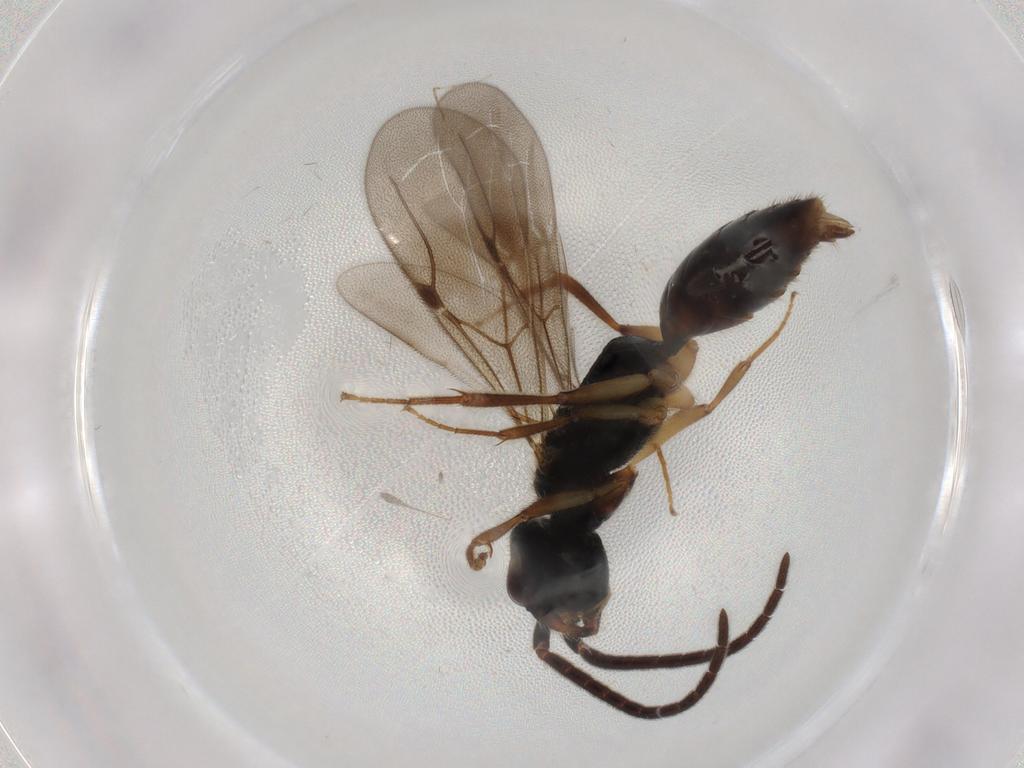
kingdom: Animalia
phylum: Arthropoda
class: Insecta
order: Hymenoptera
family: Bethylidae
